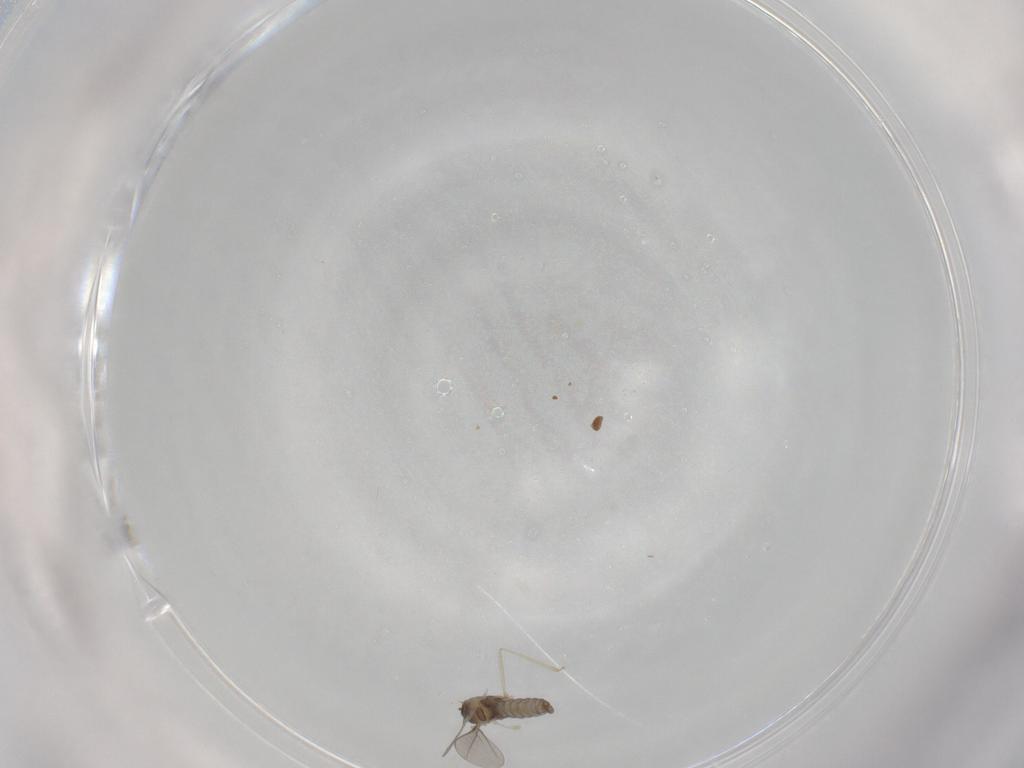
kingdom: Animalia
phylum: Arthropoda
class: Insecta
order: Diptera
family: Chironomidae
